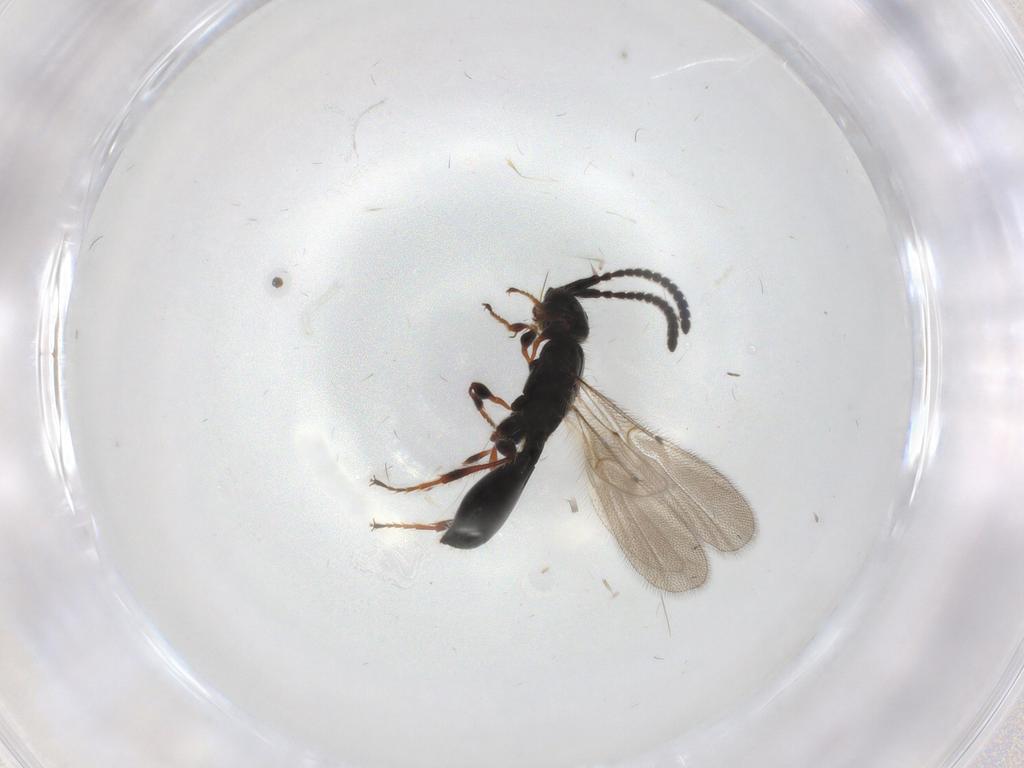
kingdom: Animalia
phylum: Arthropoda
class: Insecta
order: Hymenoptera
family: Diapriidae
